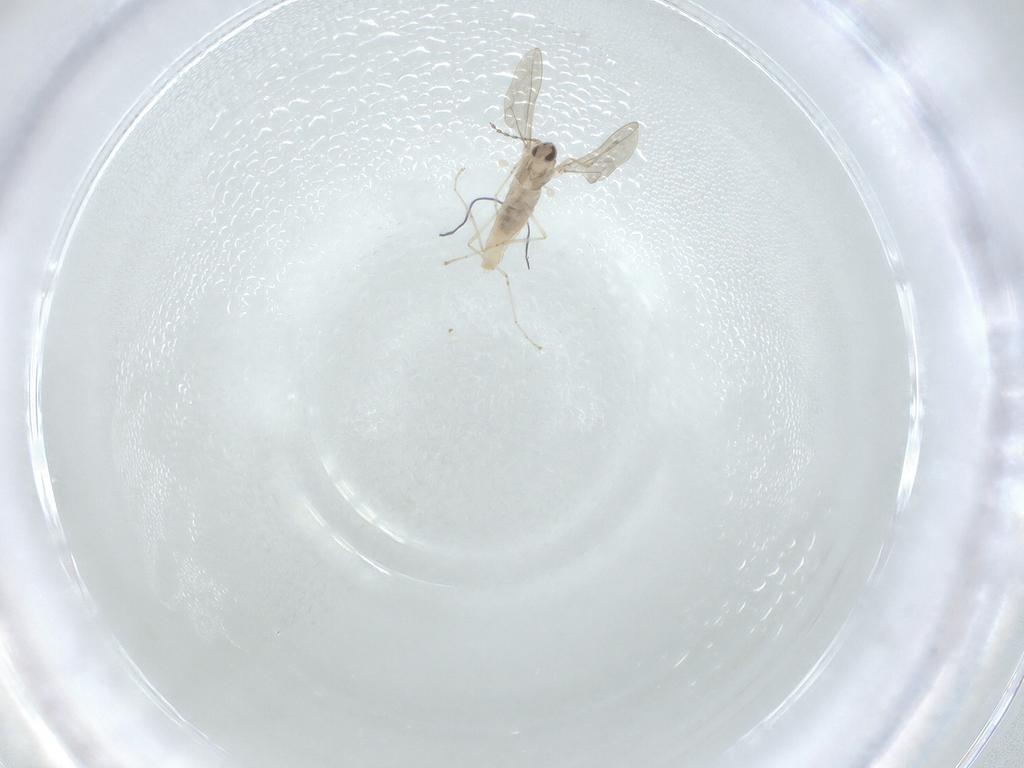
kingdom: Animalia
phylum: Arthropoda
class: Insecta
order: Diptera
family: Cecidomyiidae
